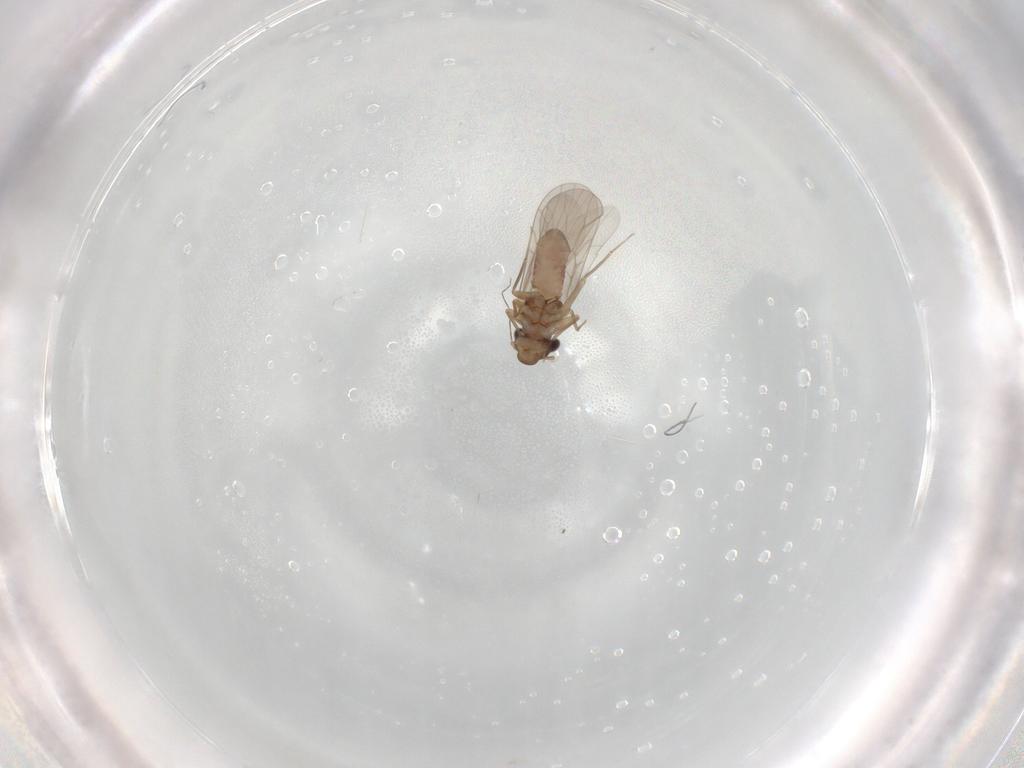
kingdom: Animalia
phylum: Arthropoda
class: Insecta
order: Psocodea
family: Lepidopsocidae
